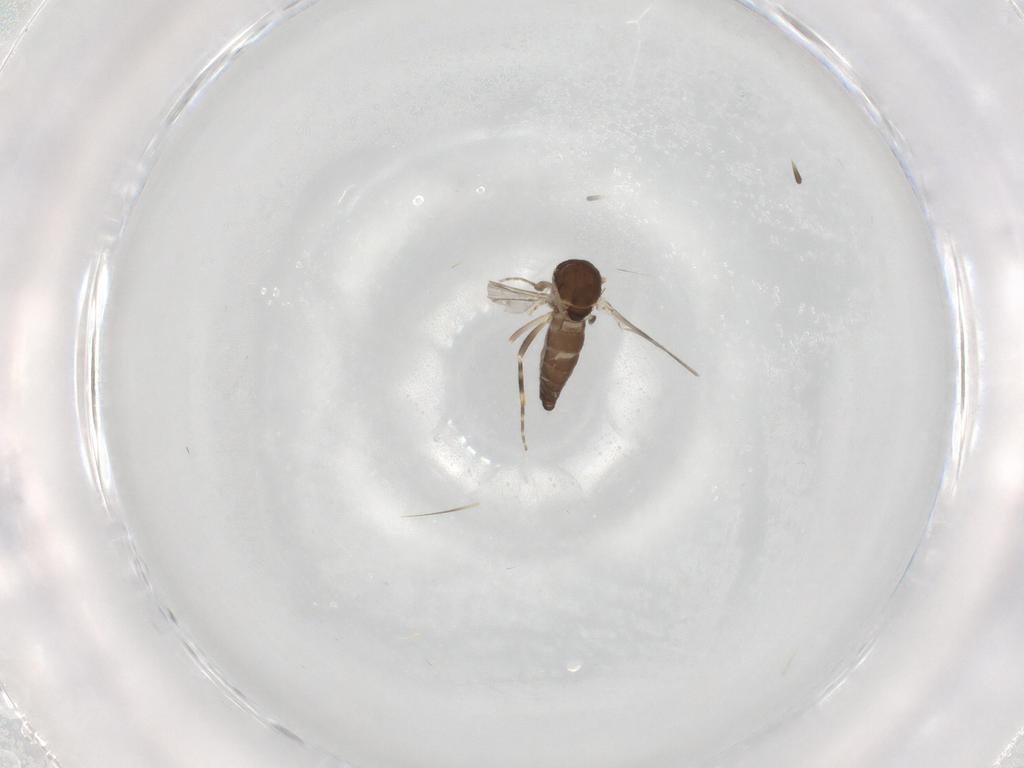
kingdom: Animalia
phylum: Arthropoda
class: Insecta
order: Diptera
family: Ceratopogonidae
